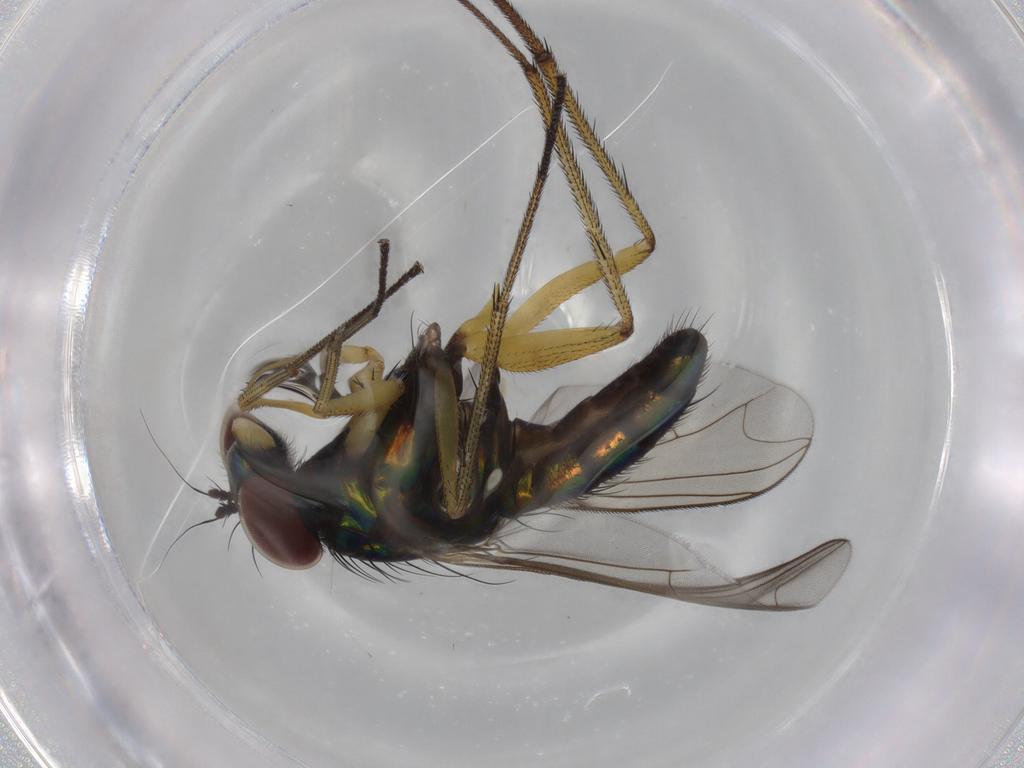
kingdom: Animalia
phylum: Arthropoda
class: Insecta
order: Diptera
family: Dolichopodidae
